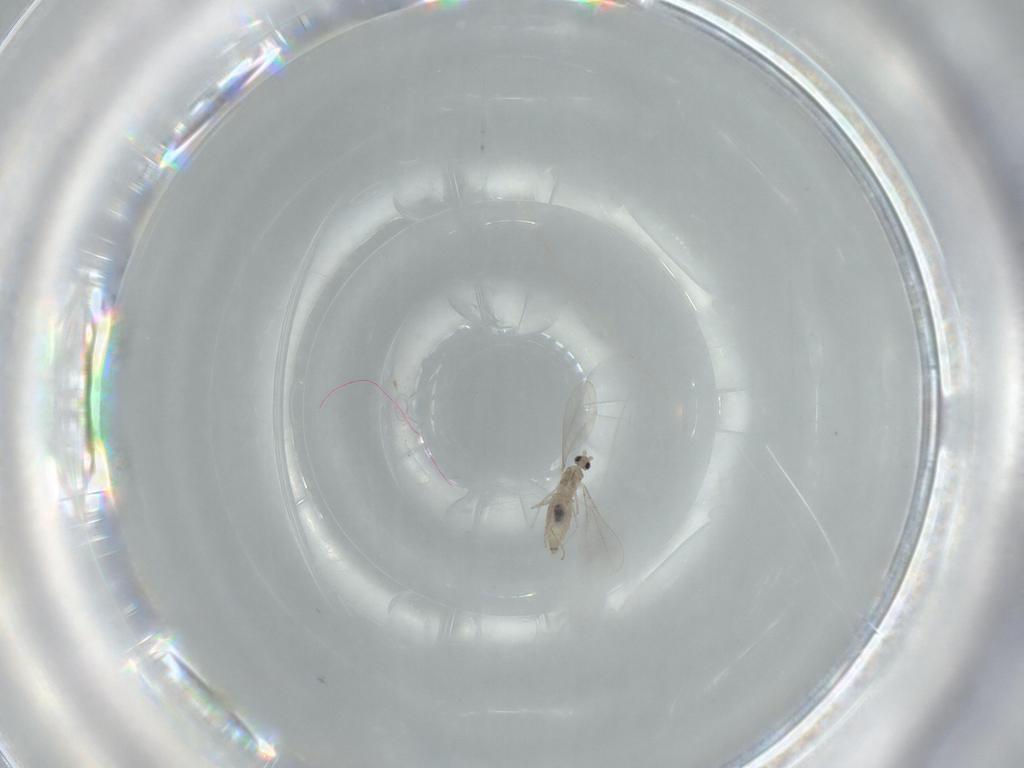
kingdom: Animalia
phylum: Arthropoda
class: Insecta
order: Diptera
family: Cecidomyiidae
